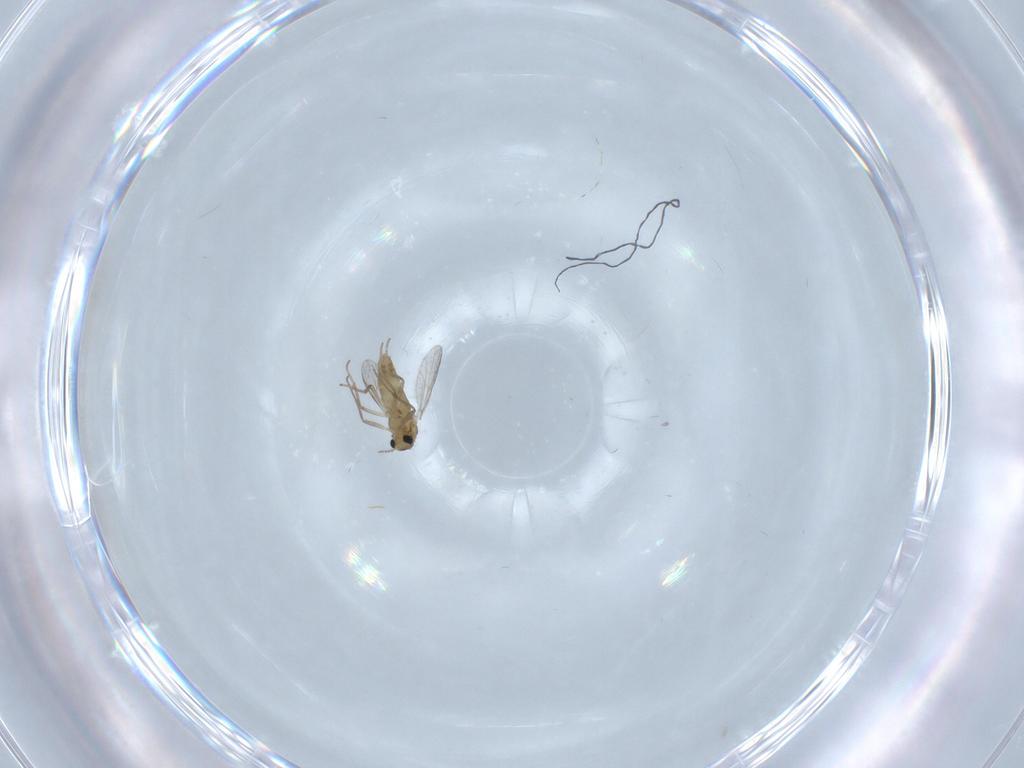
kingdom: Animalia
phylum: Arthropoda
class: Insecta
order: Diptera
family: Chironomidae
